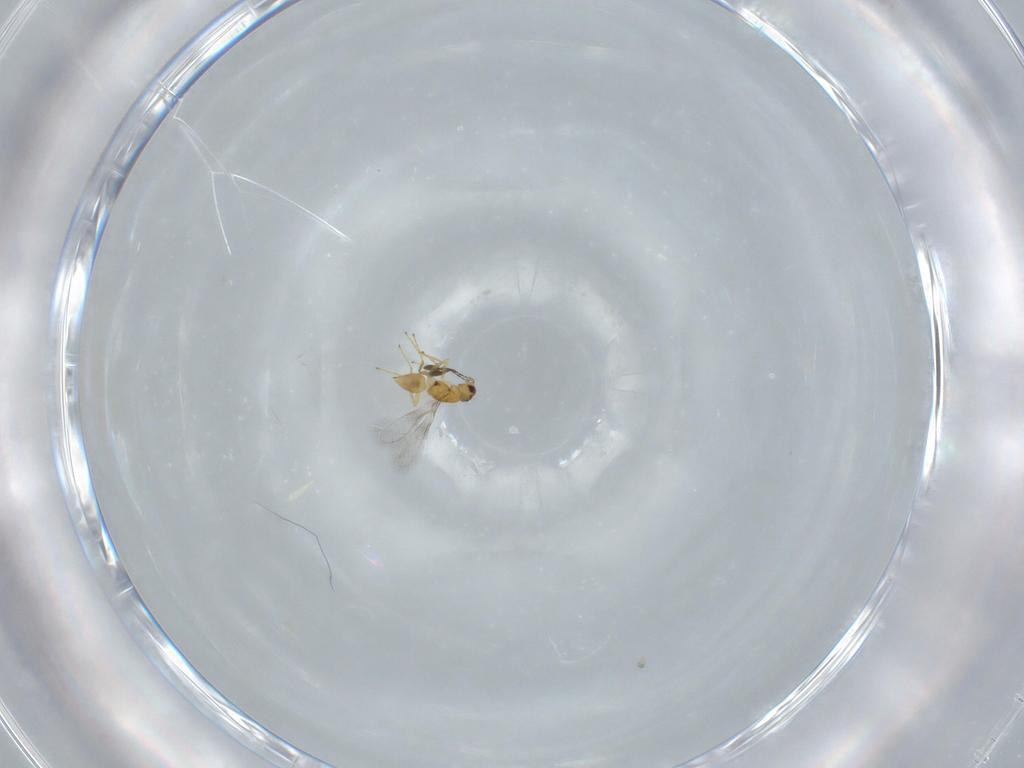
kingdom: Animalia
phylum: Arthropoda
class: Insecta
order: Hymenoptera
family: Mymaridae
